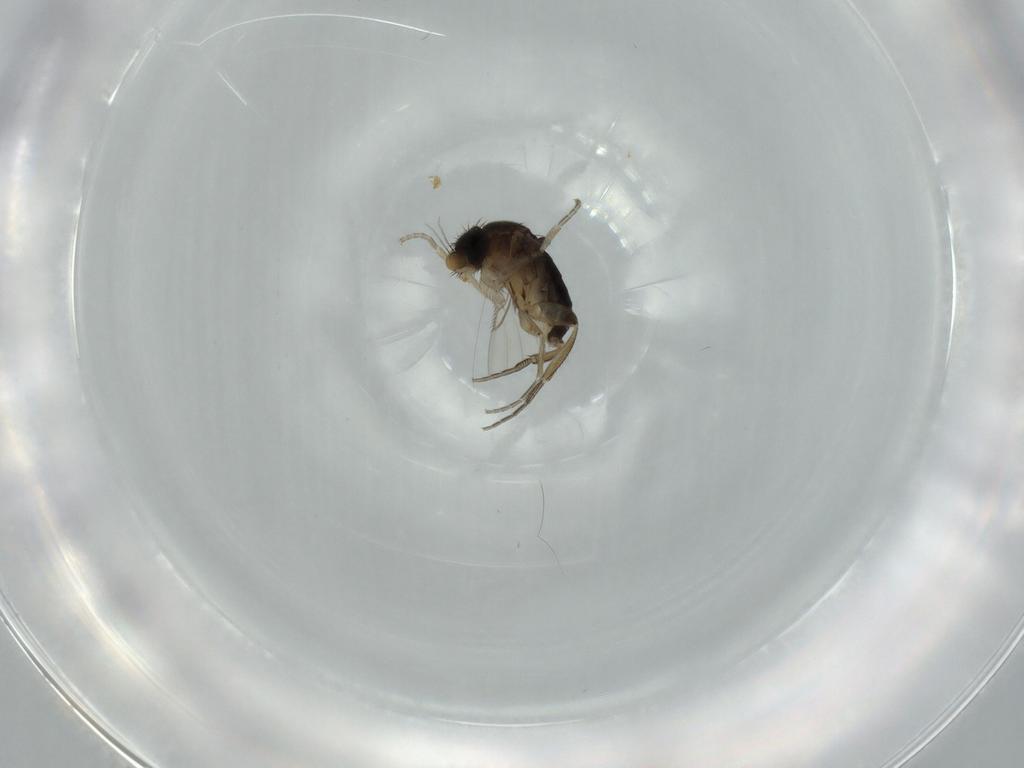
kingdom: Animalia
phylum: Arthropoda
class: Insecta
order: Diptera
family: Phoridae
